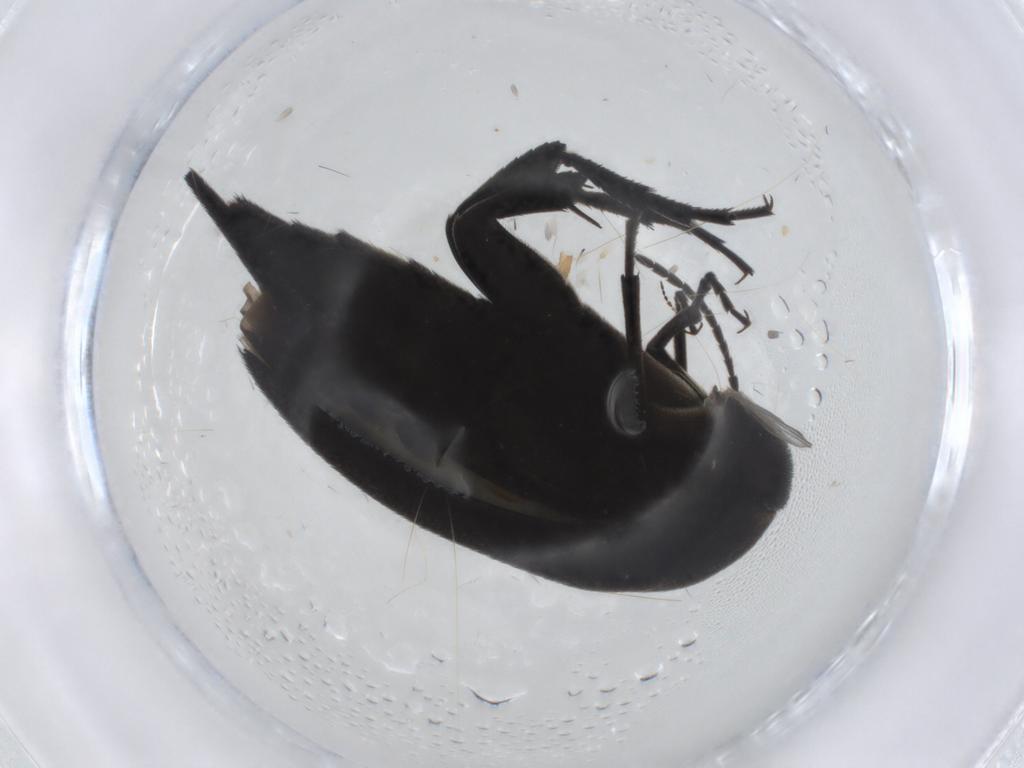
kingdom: Animalia
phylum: Arthropoda
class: Insecta
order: Coleoptera
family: Mordellidae
